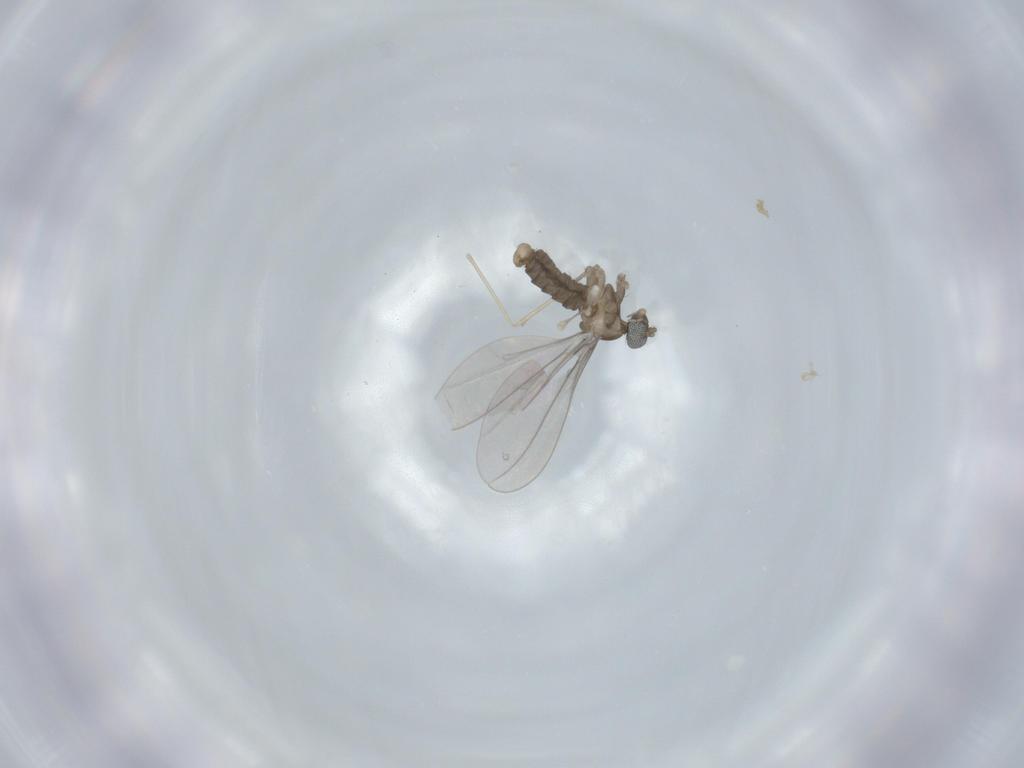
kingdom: Animalia
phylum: Arthropoda
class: Insecta
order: Diptera
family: Cecidomyiidae
